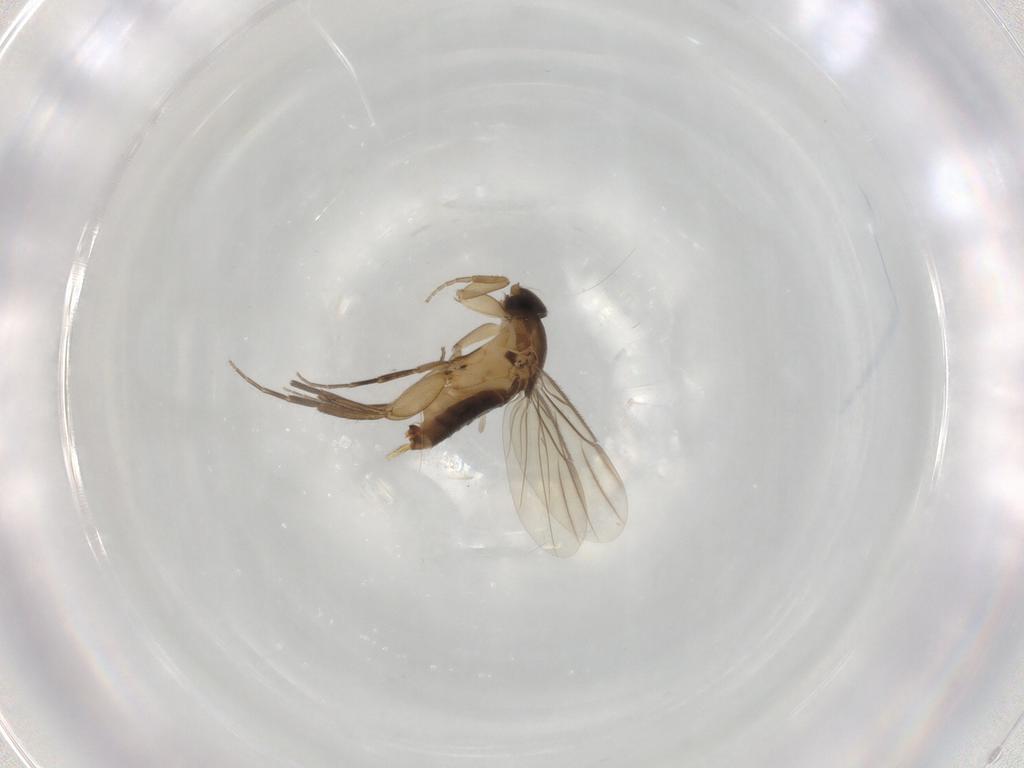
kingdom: Animalia
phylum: Arthropoda
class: Insecta
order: Diptera
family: Phoridae
